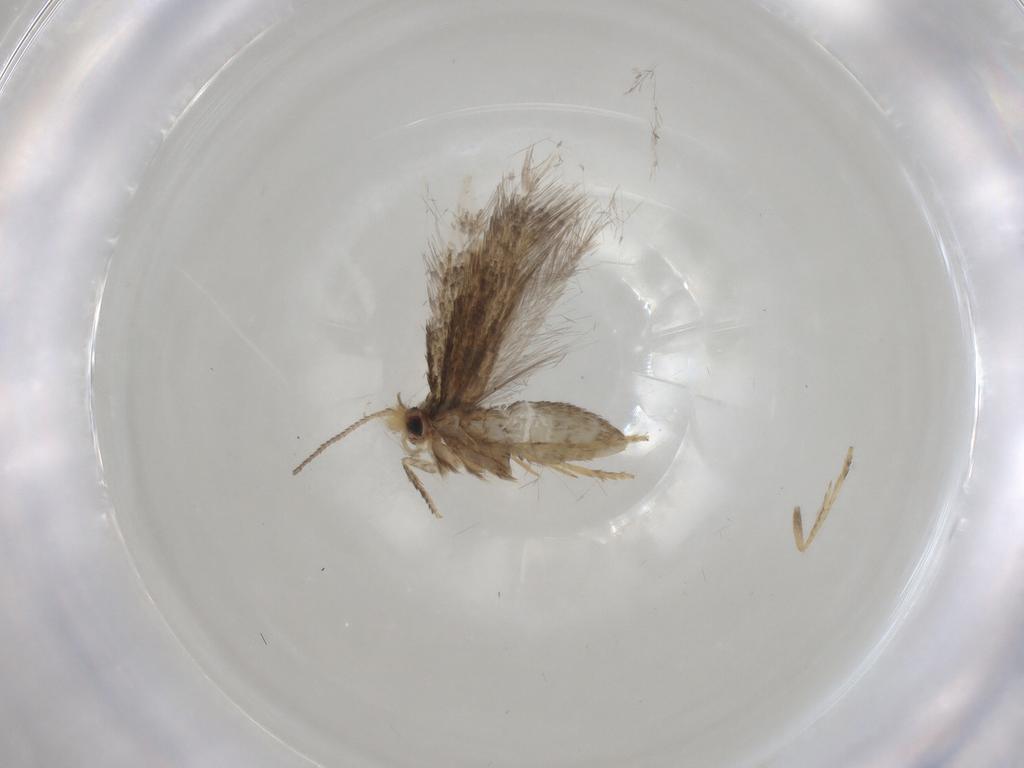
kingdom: Animalia
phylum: Arthropoda
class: Insecta
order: Lepidoptera
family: Nepticulidae
